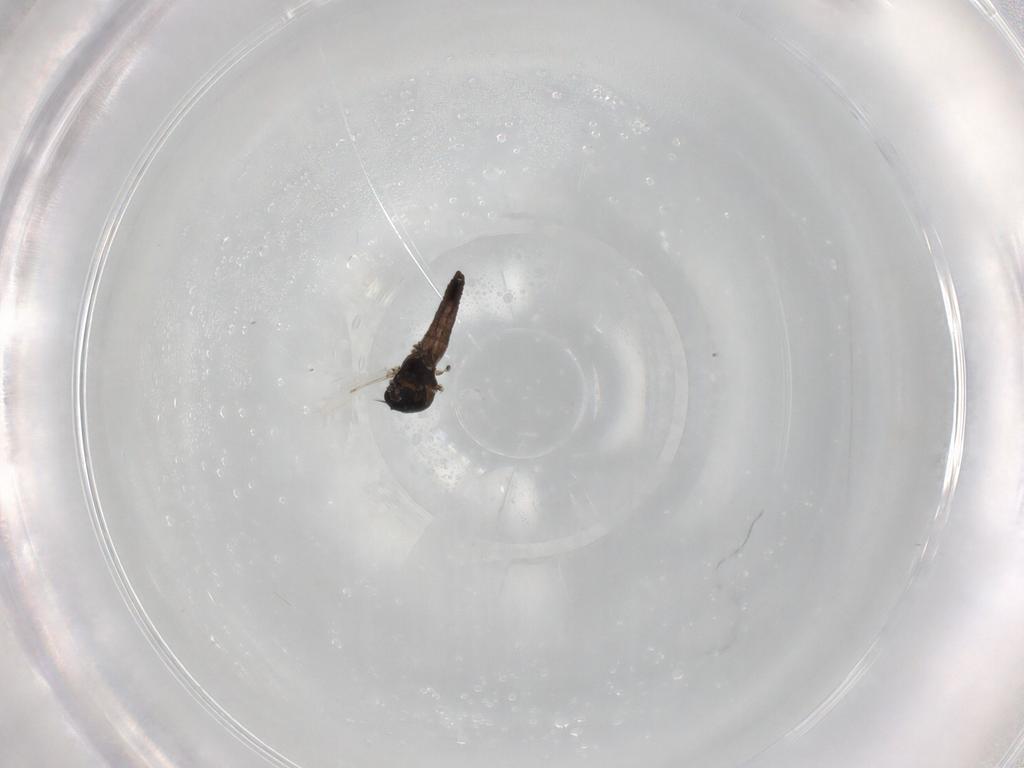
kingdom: Animalia
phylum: Arthropoda
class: Insecta
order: Diptera
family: Ceratopogonidae
